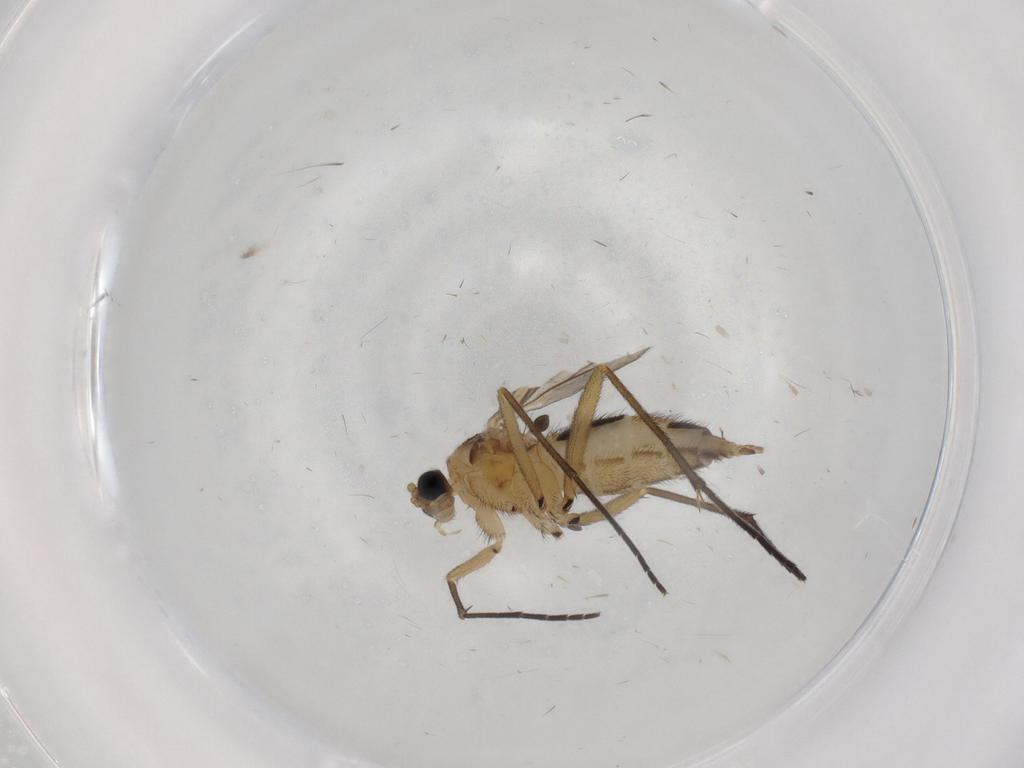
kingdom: Animalia
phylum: Arthropoda
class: Insecta
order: Diptera
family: Sciaridae
